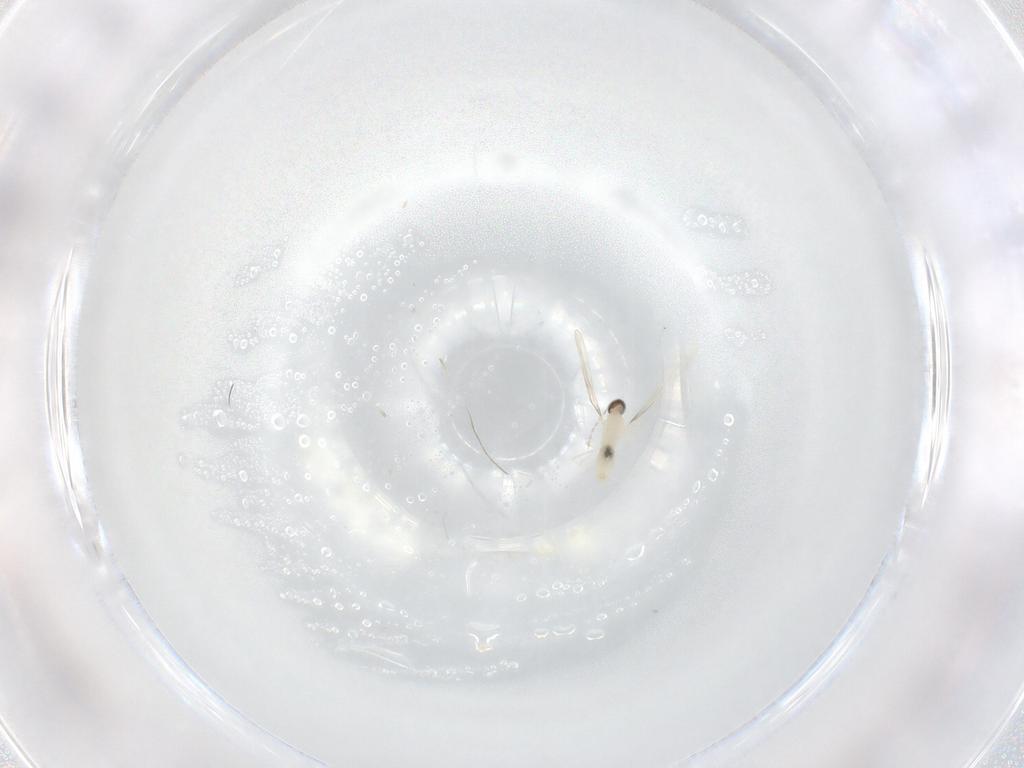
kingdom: Animalia
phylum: Arthropoda
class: Insecta
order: Diptera
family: Cecidomyiidae
